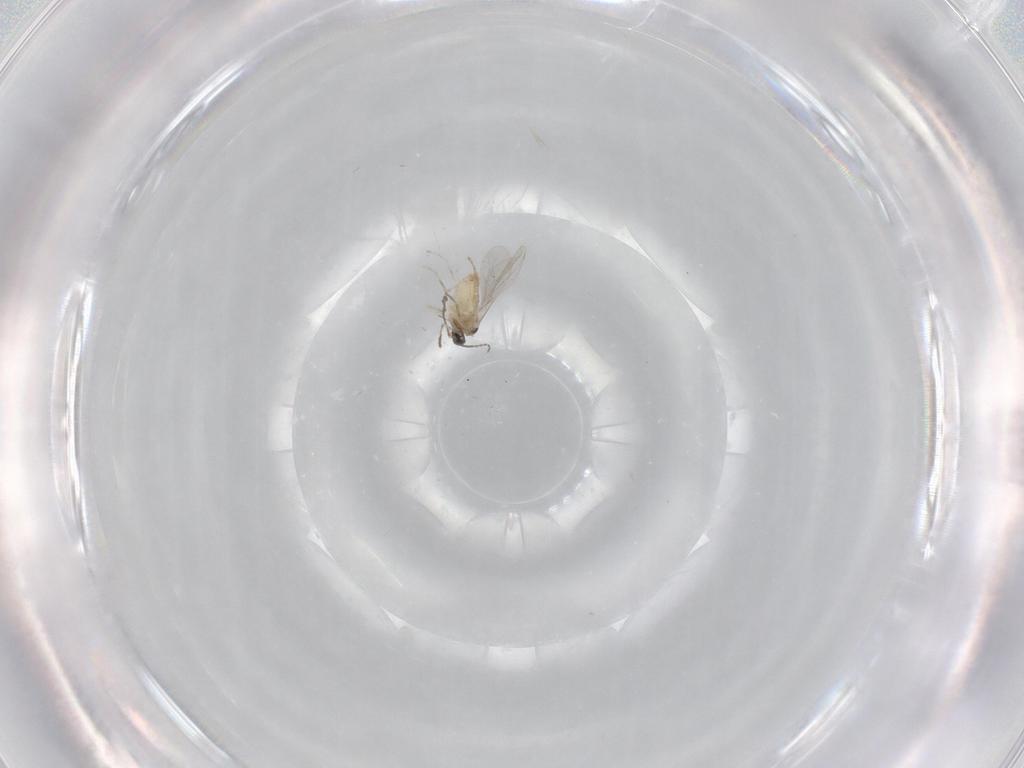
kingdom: Animalia
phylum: Arthropoda
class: Insecta
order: Diptera
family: Cecidomyiidae
